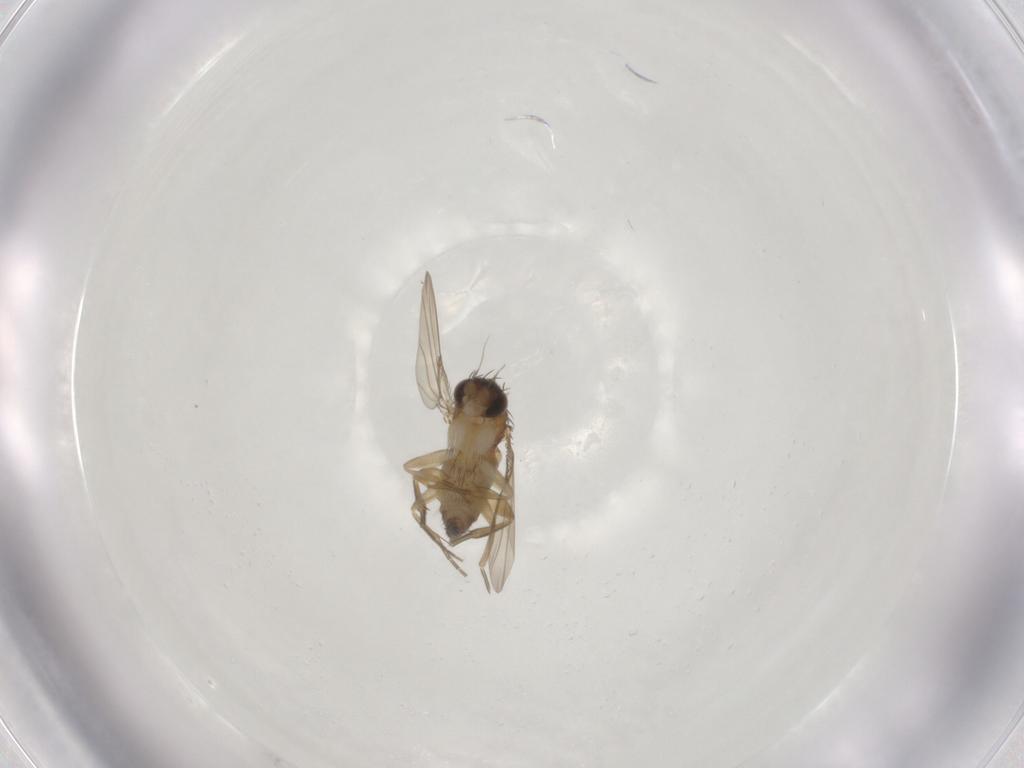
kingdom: Animalia
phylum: Arthropoda
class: Insecta
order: Diptera
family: Phoridae
